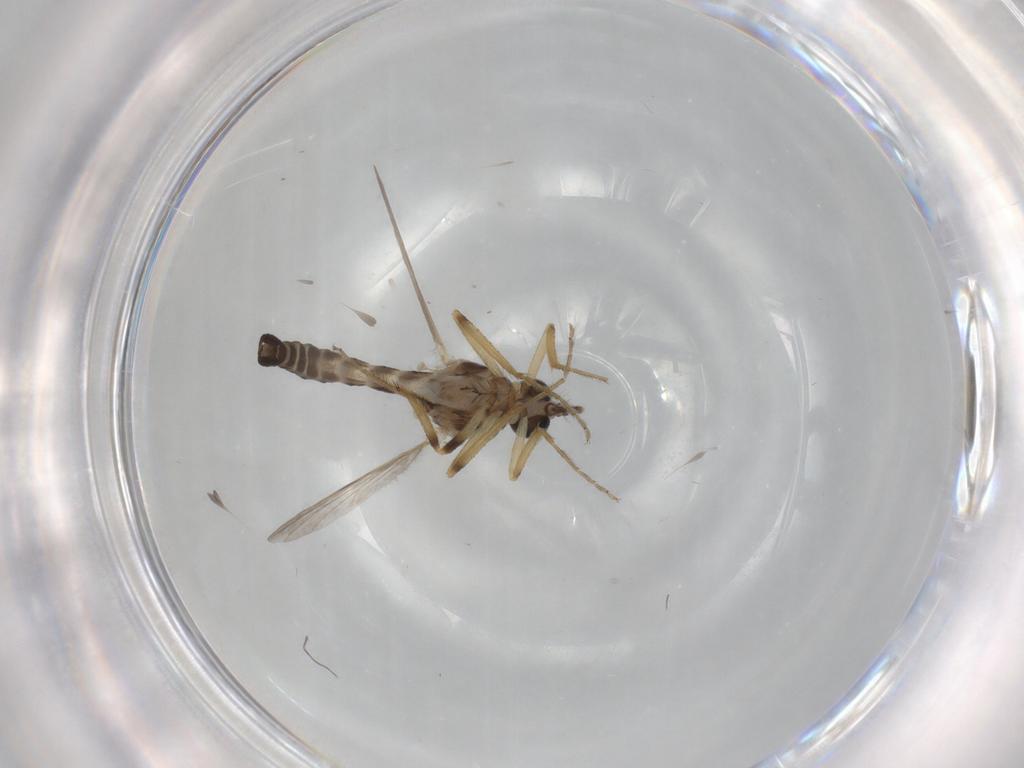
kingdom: Animalia
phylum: Arthropoda
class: Insecta
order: Diptera
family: Ceratopogonidae
